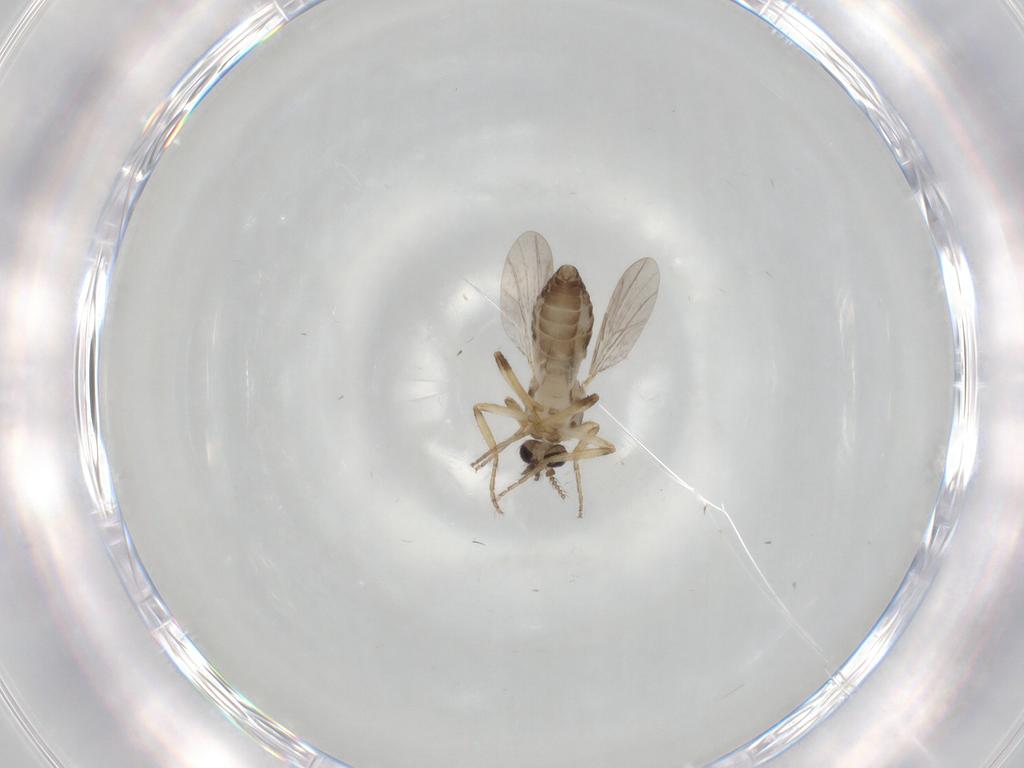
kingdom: Animalia
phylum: Arthropoda
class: Insecta
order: Diptera
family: Ceratopogonidae
